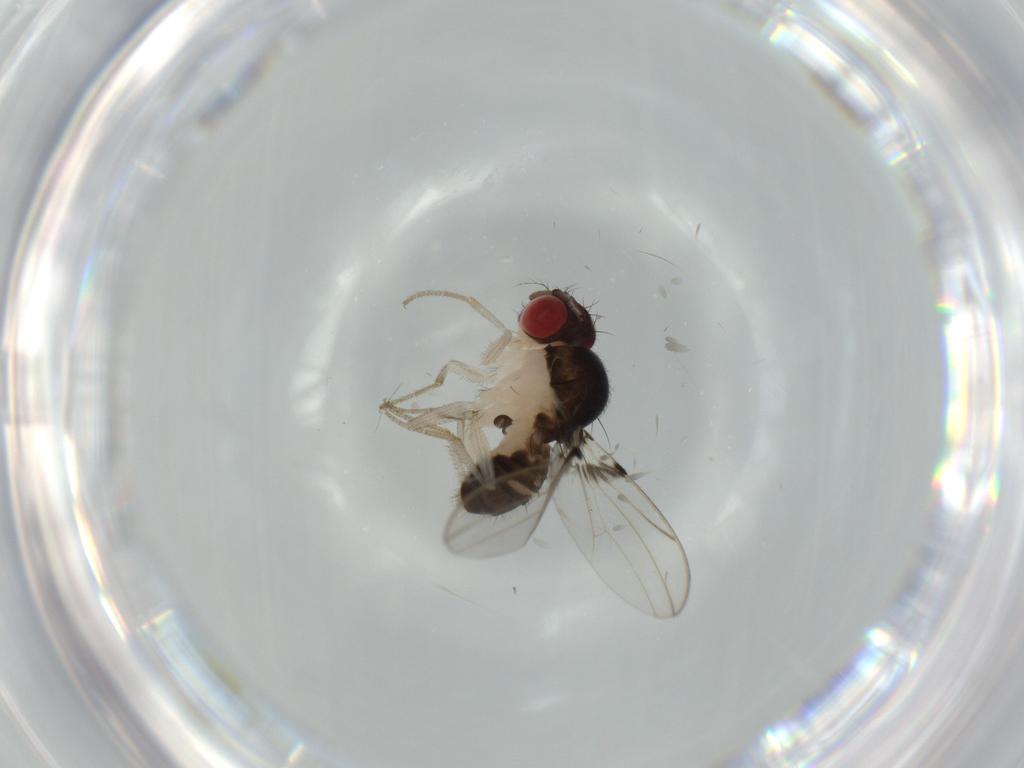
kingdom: Animalia
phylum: Arthropoda
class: Insecta
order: Diptera
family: Drosophilidae
